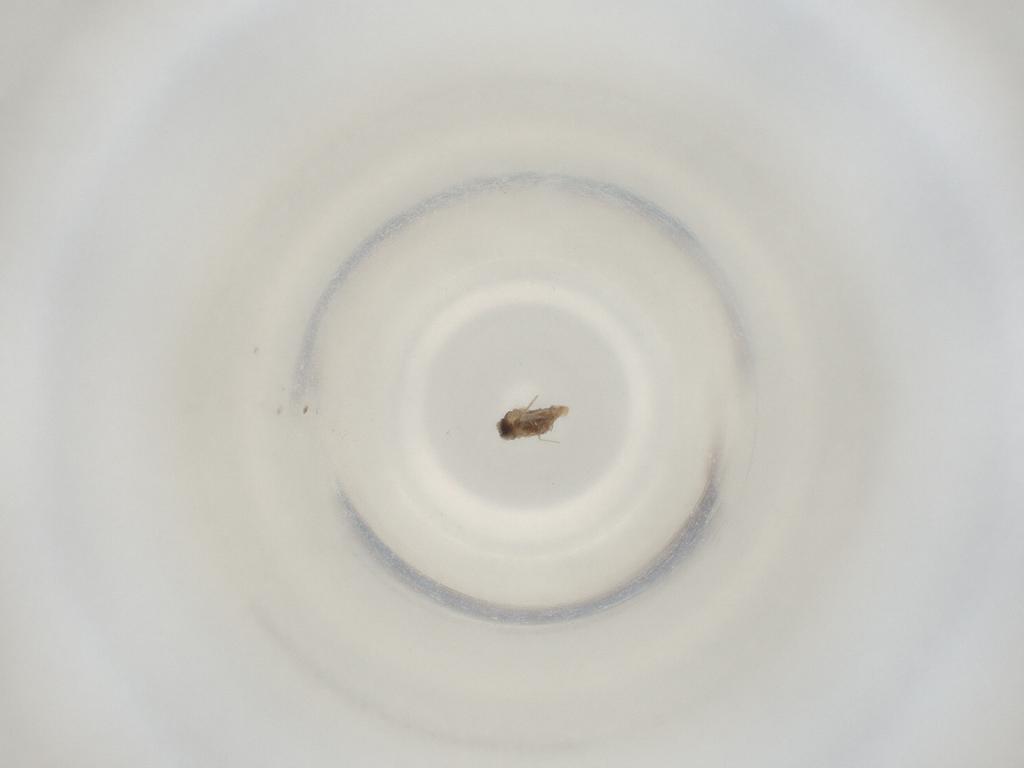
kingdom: Animalia
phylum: Arthropoda
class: Insecta
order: Diptera
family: Cecidomyiidae
